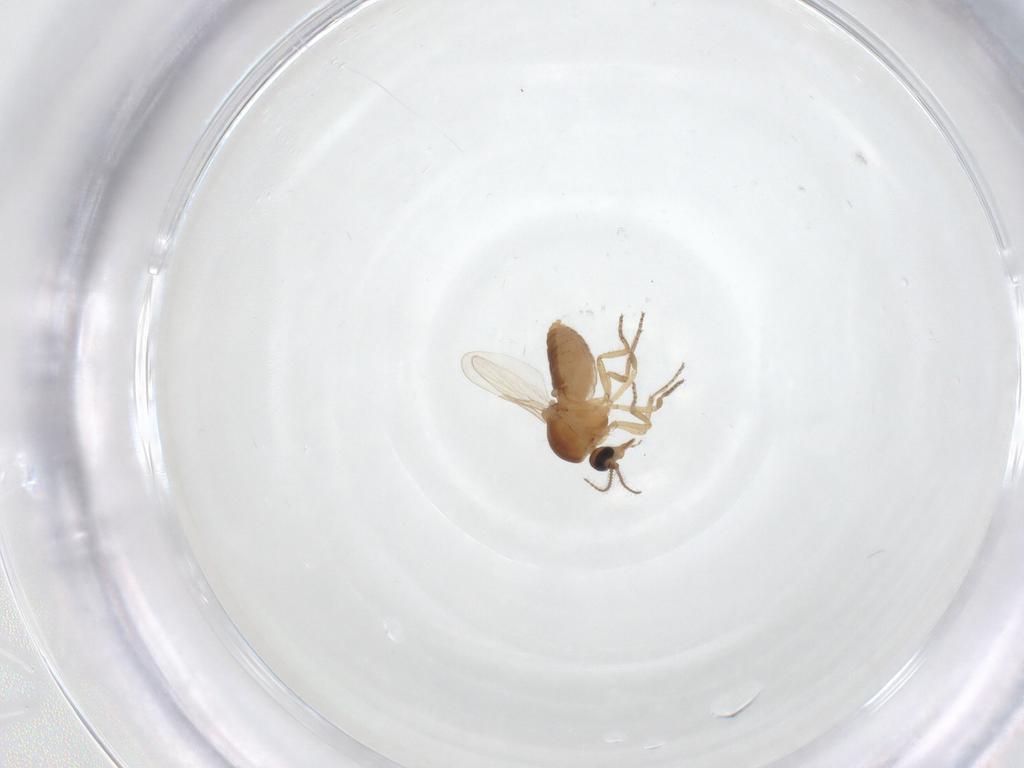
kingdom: Animalia
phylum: Arthropoda
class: Insecta
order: Diptera
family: Ceratopogonidae
